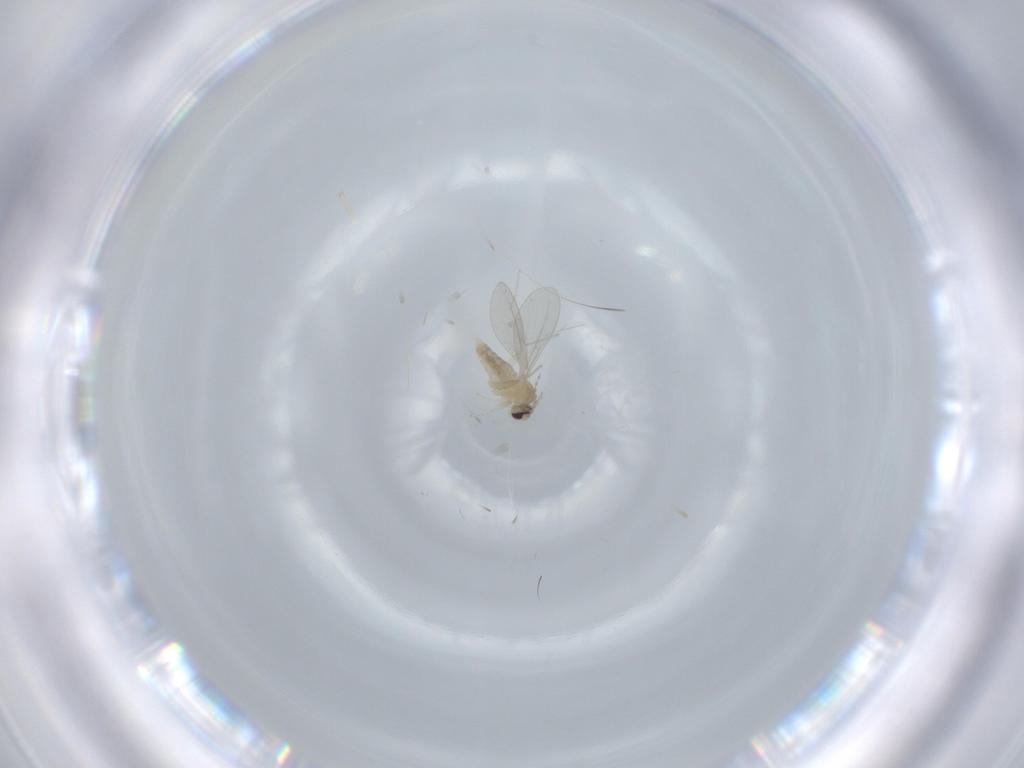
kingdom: Animalia
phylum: Arthropoda
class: Insecta
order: Diptera
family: Cecidomyiidae
